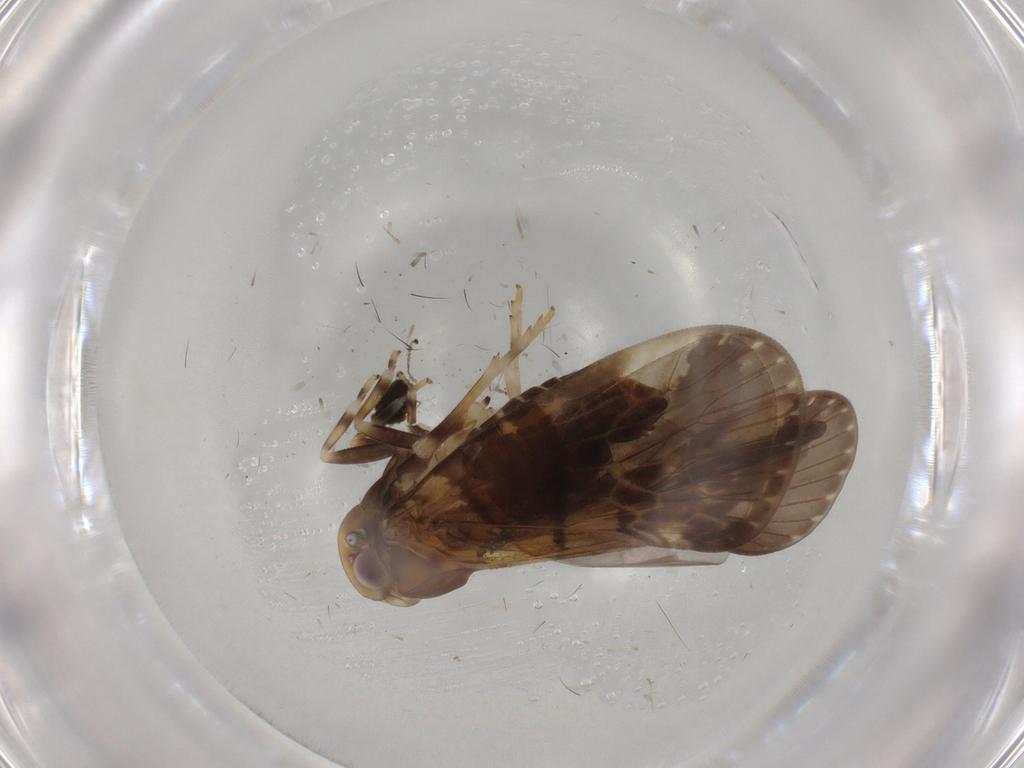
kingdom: Animalia
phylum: Arthropoda
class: Insecta
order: Hemiptera
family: Cixiidae
